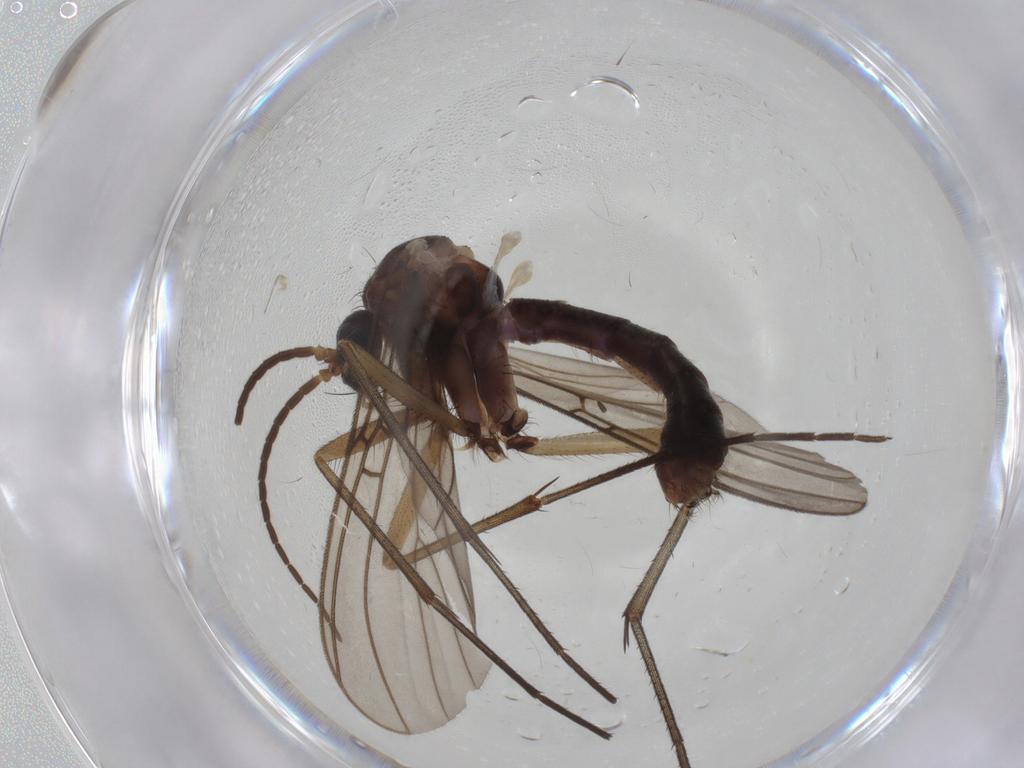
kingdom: Animalia
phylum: Arthropoda
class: Insecta
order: Diptera
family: Mycetophilidae
